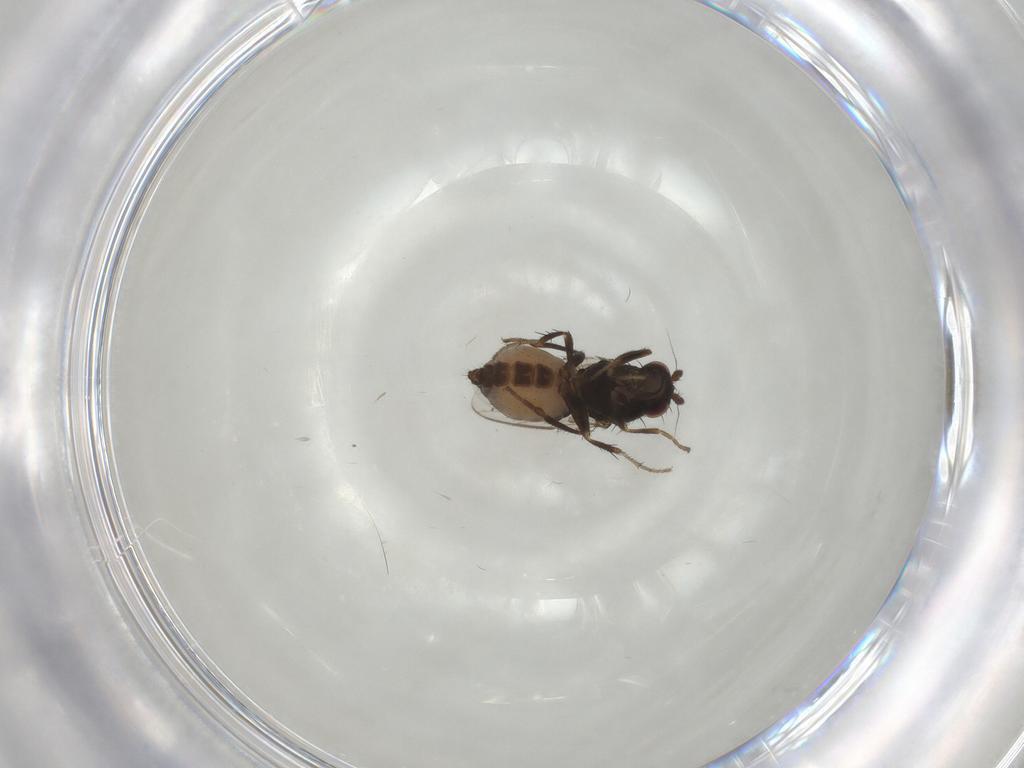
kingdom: Animalia
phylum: Arthropoda
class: Insecta
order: Diptera
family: Sphaeroceridae
